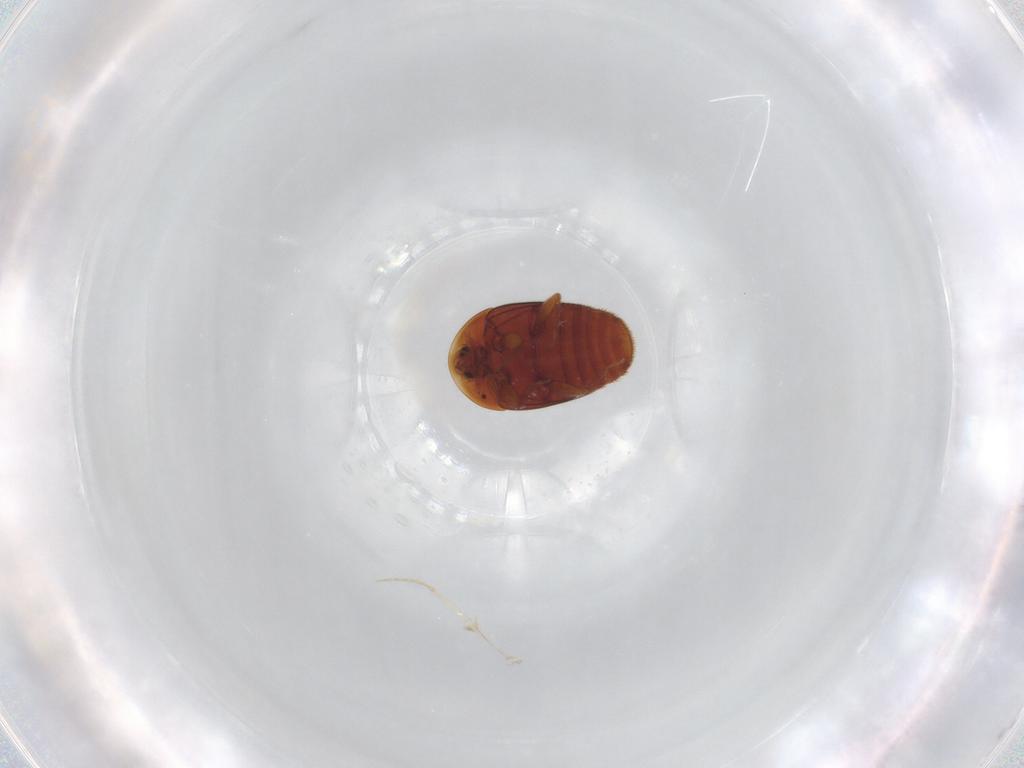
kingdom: Animalia
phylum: Arthropoda
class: Insecta
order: Coleoptera
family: Corylophidae
